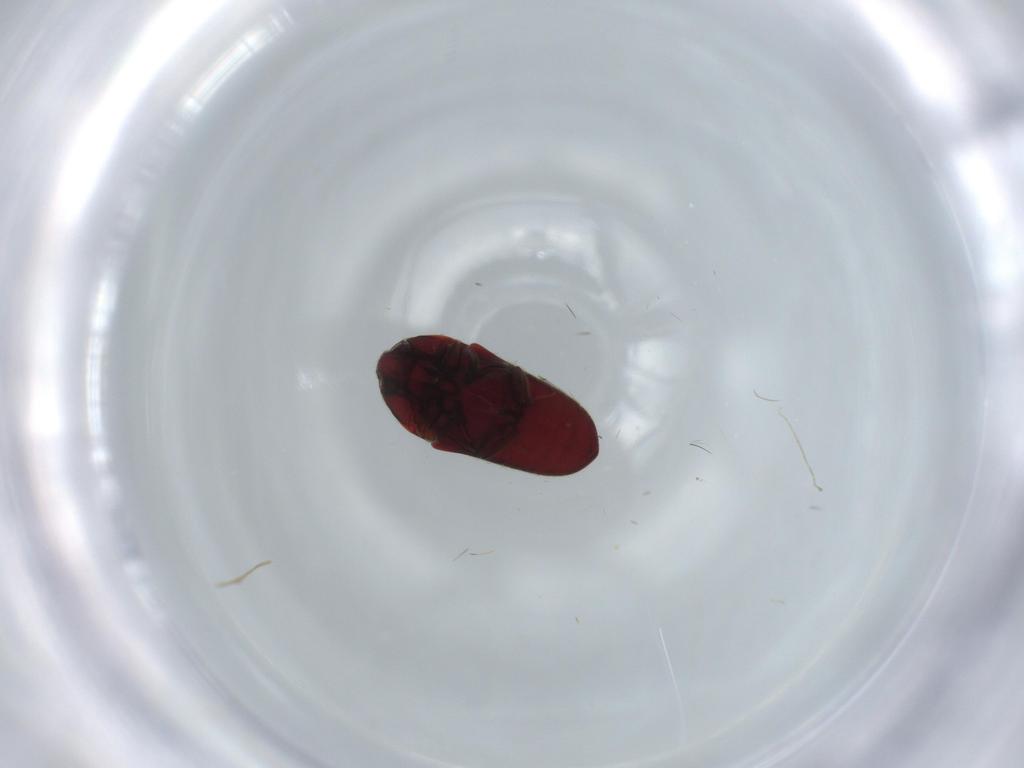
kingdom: Animalia
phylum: Arthropoda
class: Insecta
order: Coleoptera
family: Throscidae
